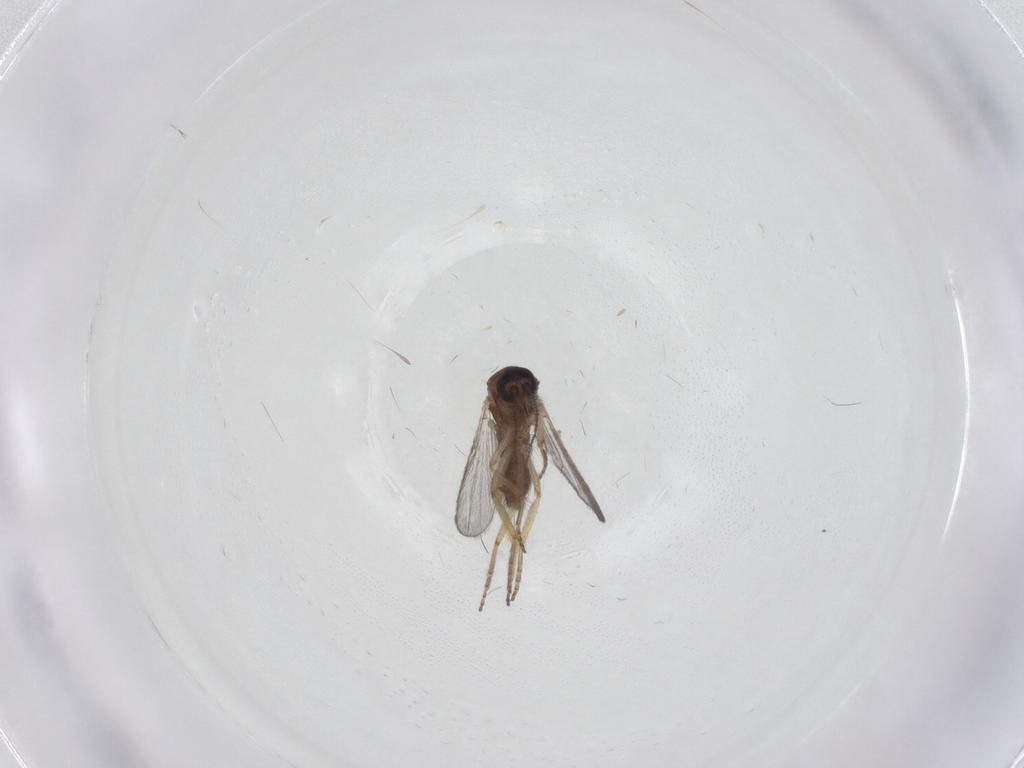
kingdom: Animalia
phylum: Arthropoda
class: Insecta
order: Diptera
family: Ceratopogonidae
